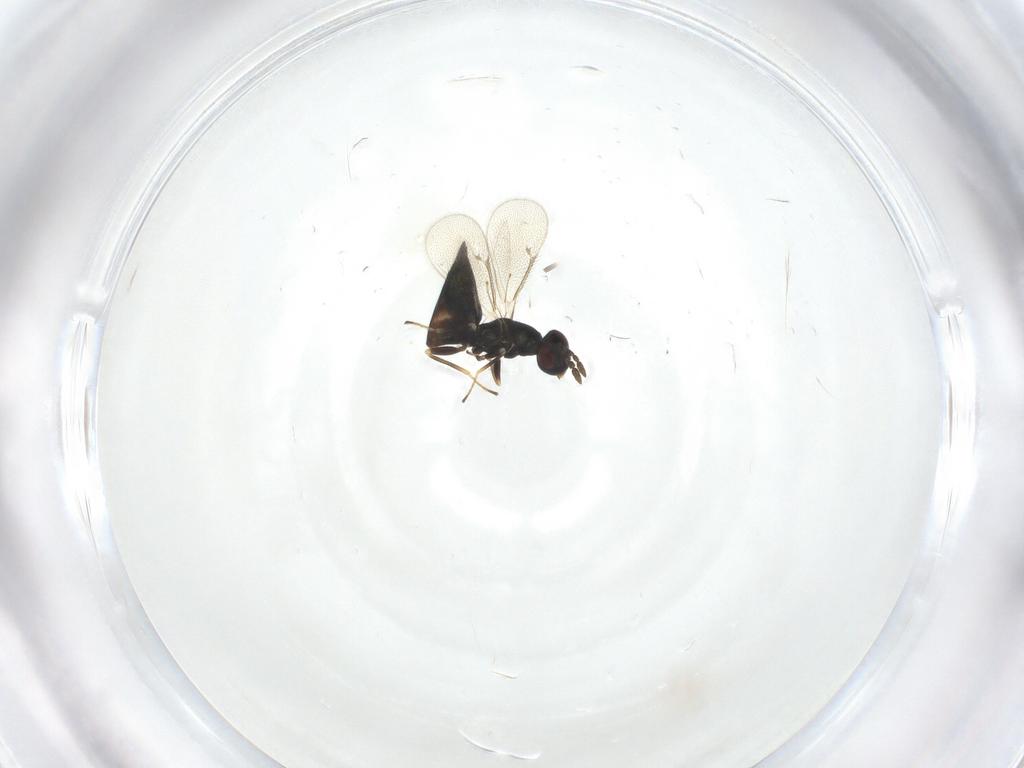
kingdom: Animalia
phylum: Arthropoda
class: Insecta
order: Hymenoptera
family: Eulophidae
